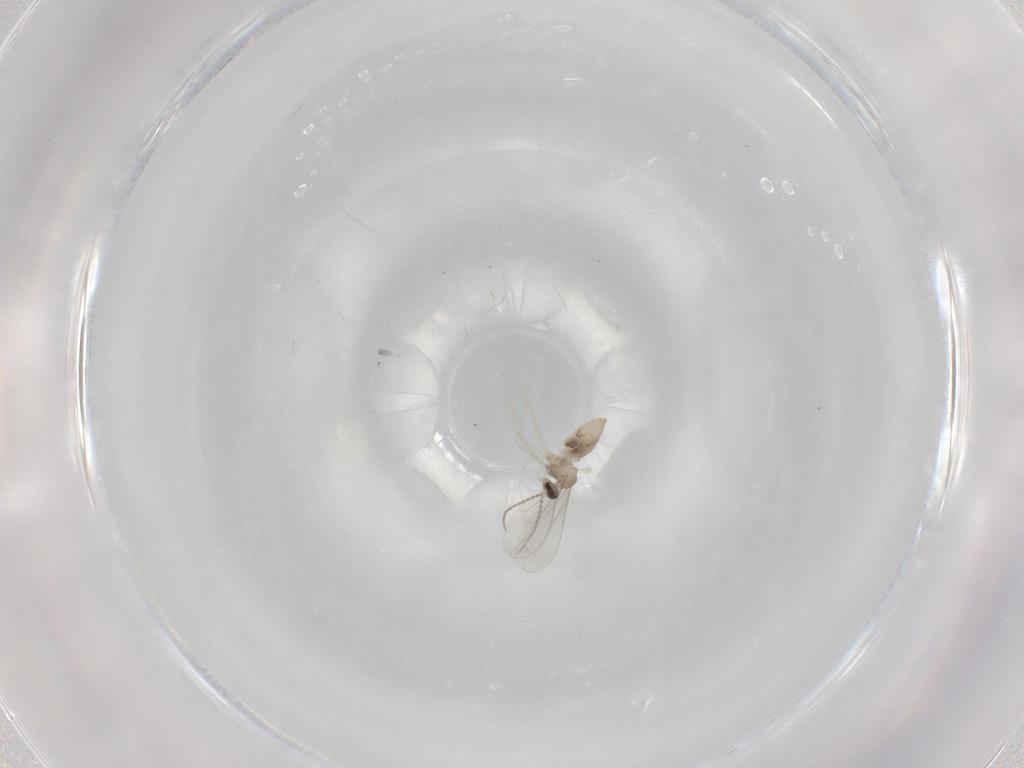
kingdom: Animalia
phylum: Arthropoda
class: Insecta
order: Diptera
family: Cecidomyiidae
